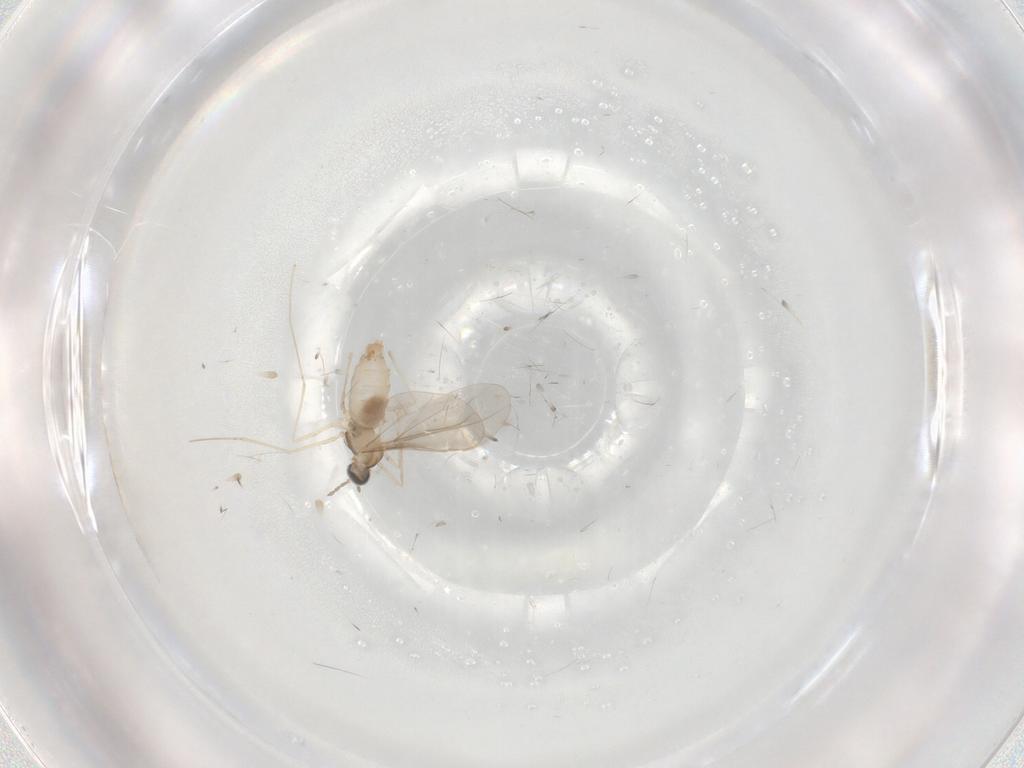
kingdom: Animalia
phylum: Arthropoda
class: Insecta
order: Diptera
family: Cecidomyiidae
